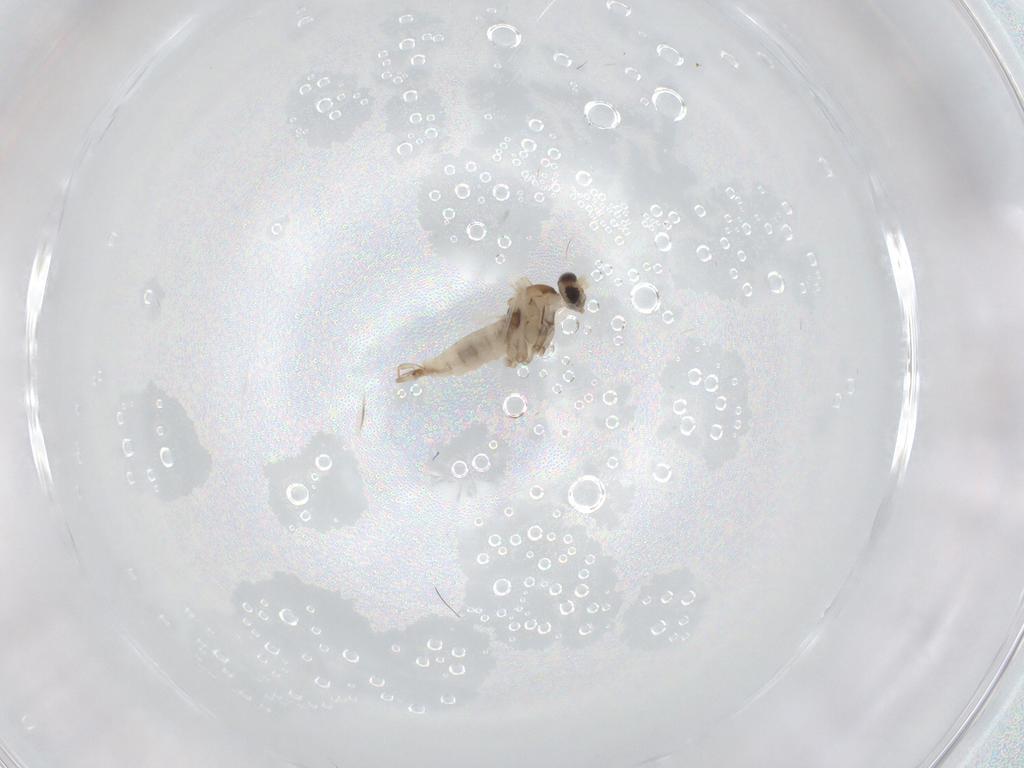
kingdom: Animalia
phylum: Arthropoda
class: Insecta
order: Diptera
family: Cecidomyiidae
